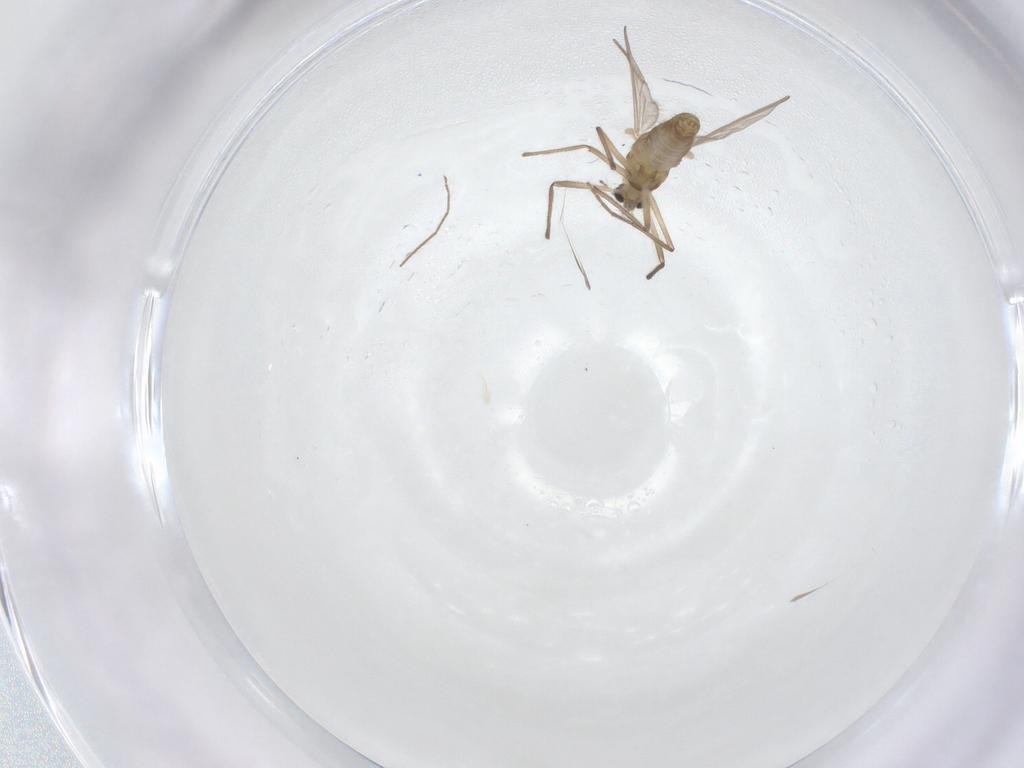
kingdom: Animalia
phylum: Arthropoda
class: Insecta
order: Diptera
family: Chironomidae
